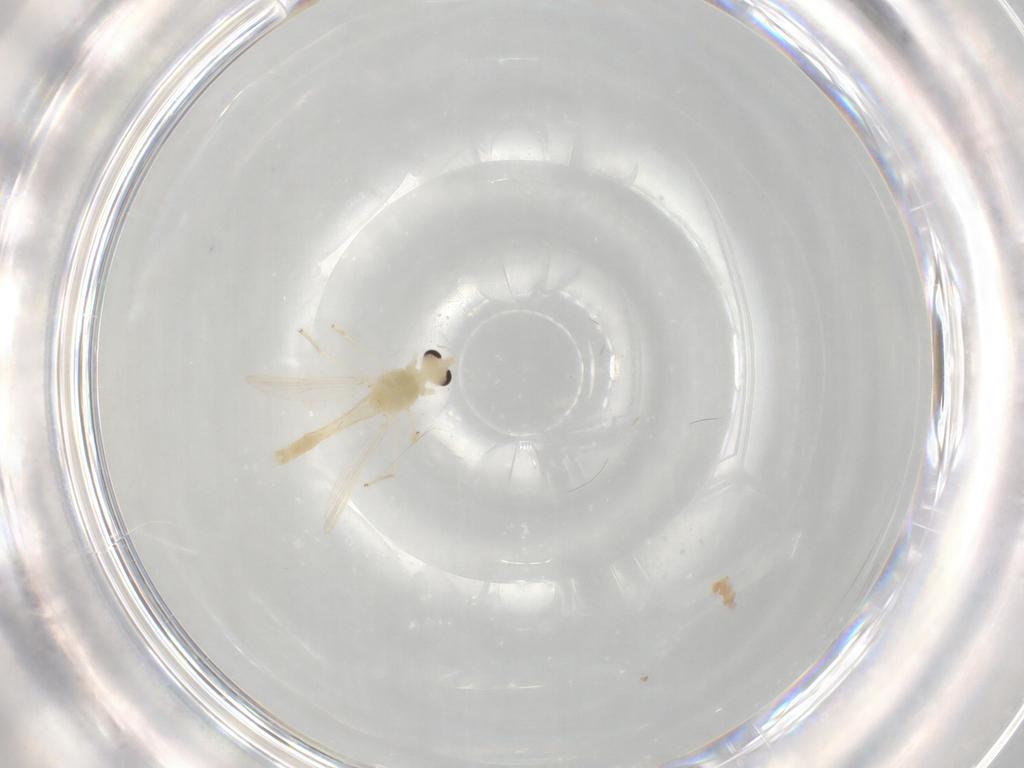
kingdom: Animalia
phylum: Arthropoda
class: Insecta
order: Diptera
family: Chironomidae
